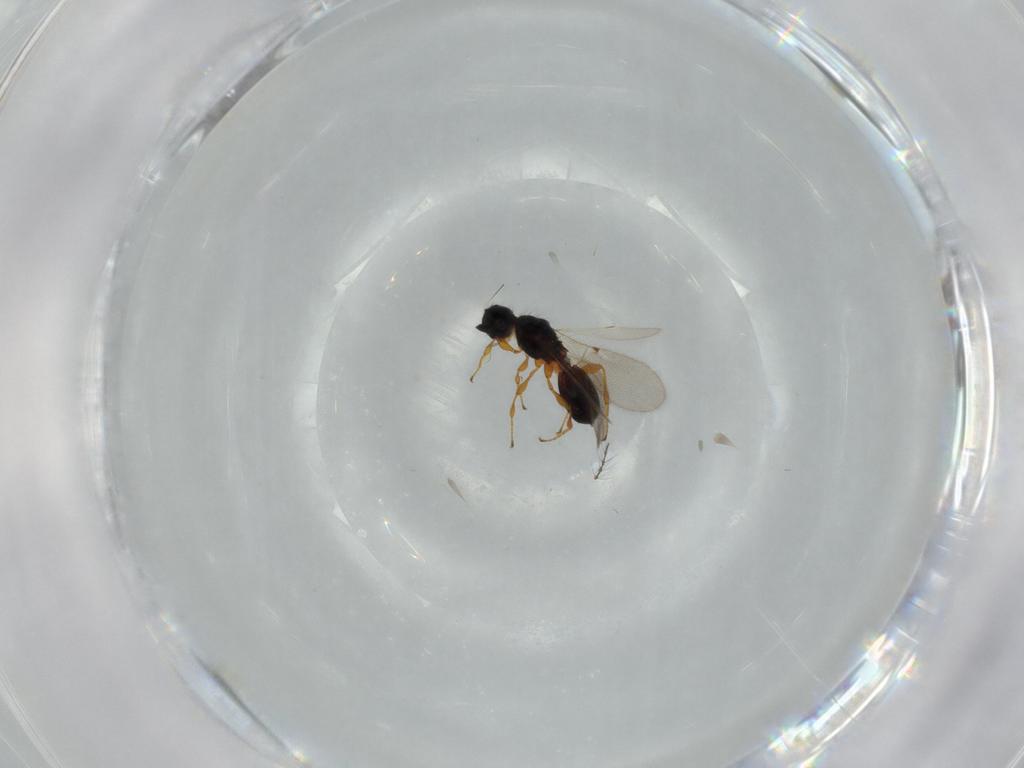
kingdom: Animalia
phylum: Arthropoda
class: Insecta
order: Hymenoptera
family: Diapriidae
